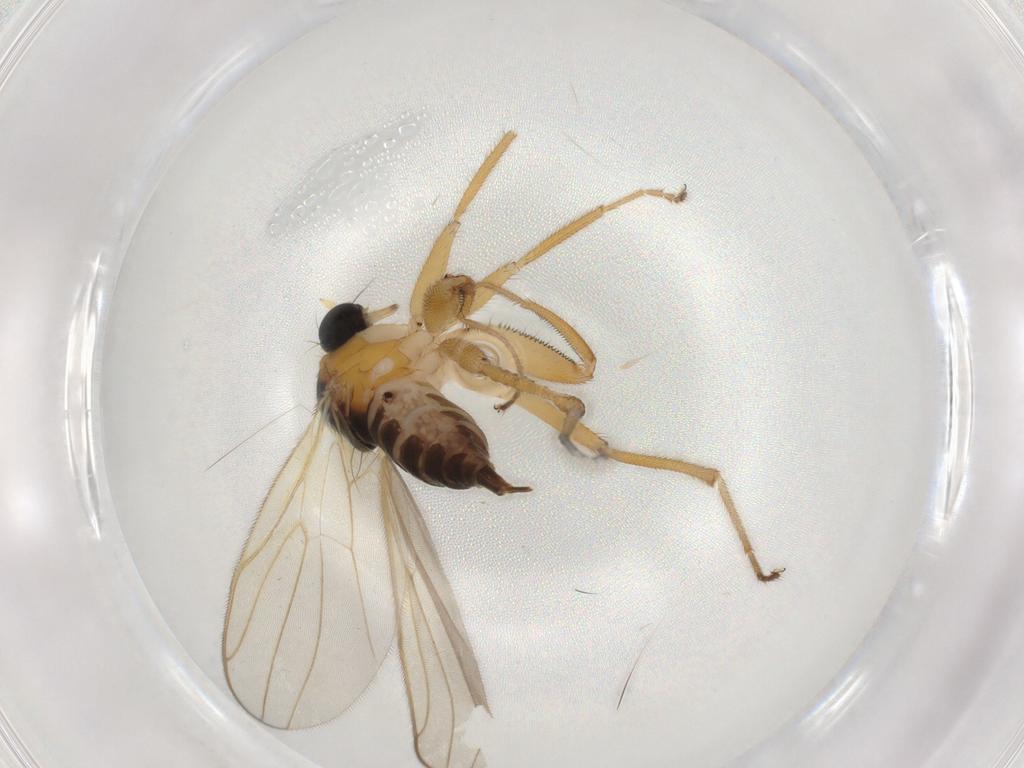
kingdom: Animalia
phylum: Arthropoda
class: Insecta
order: Diptera
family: Hybotidae
